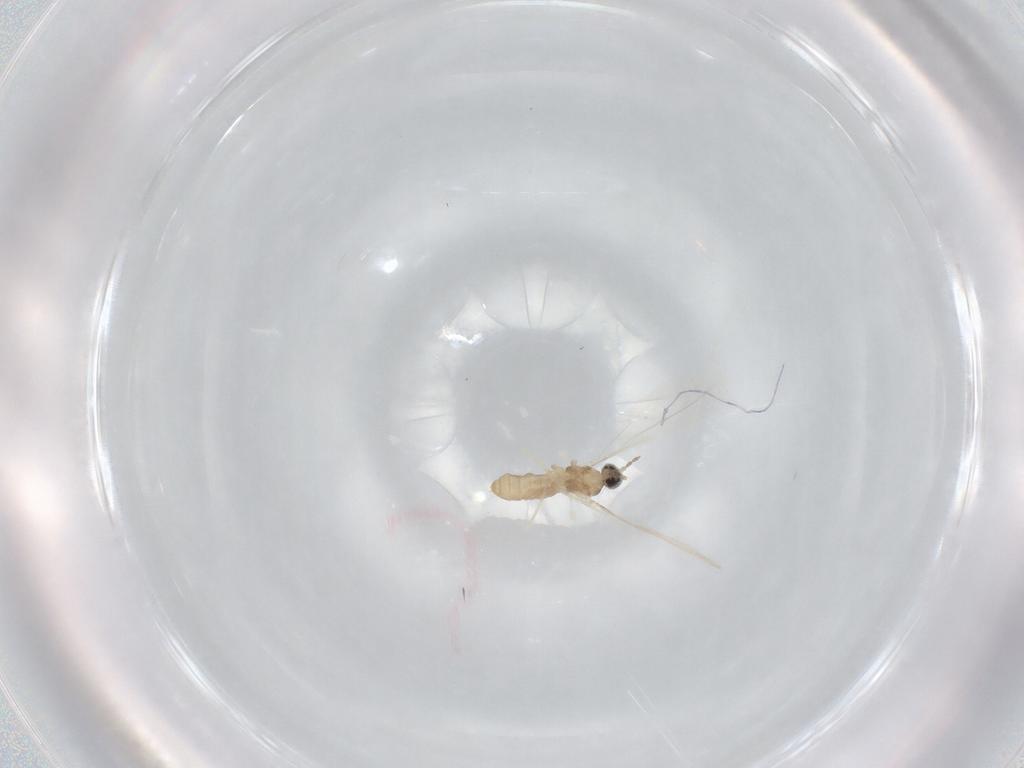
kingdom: Animalia
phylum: Arthropoda
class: Insecta
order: Diptera
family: Cecidomyiidae
